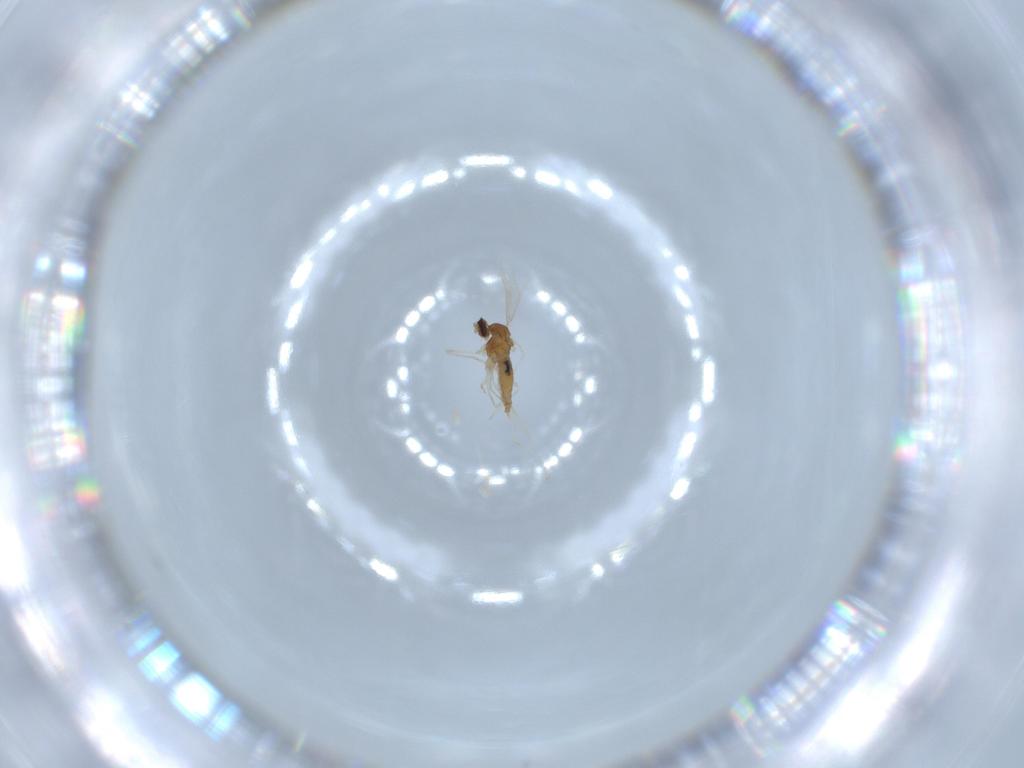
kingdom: Animalia
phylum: Arthropoda
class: Insecta
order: Diptera
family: Cecidomyiidae
